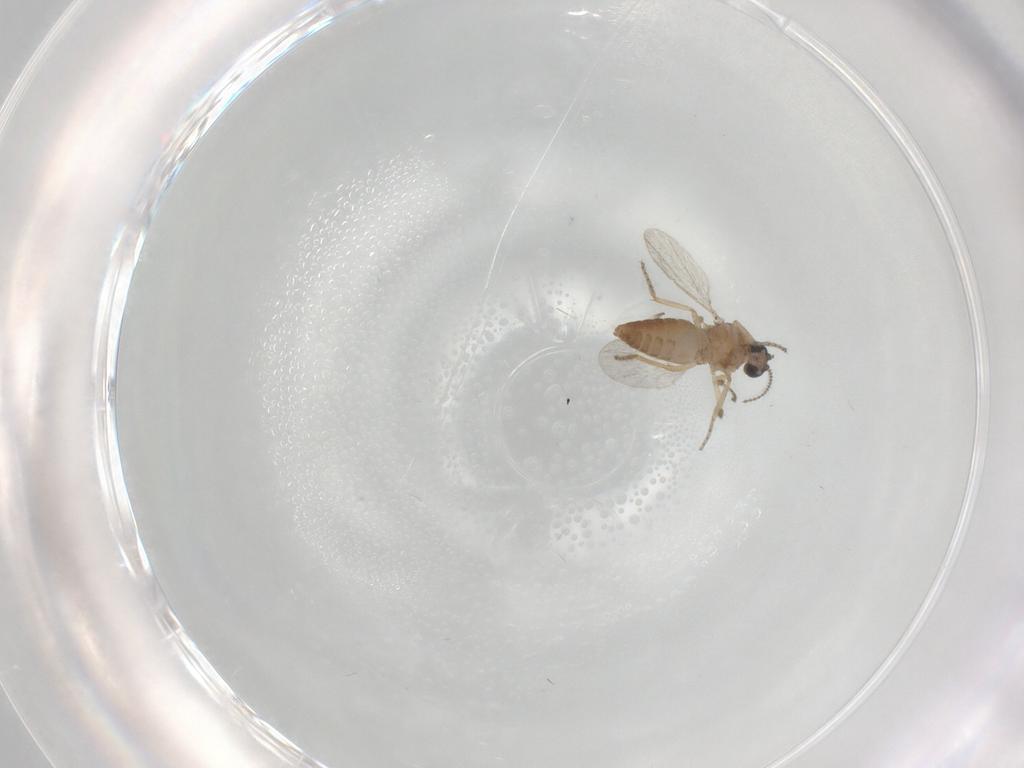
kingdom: Animalia
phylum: Arthropoda
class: Insecta
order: Diptera
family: Ceratopogonidae
